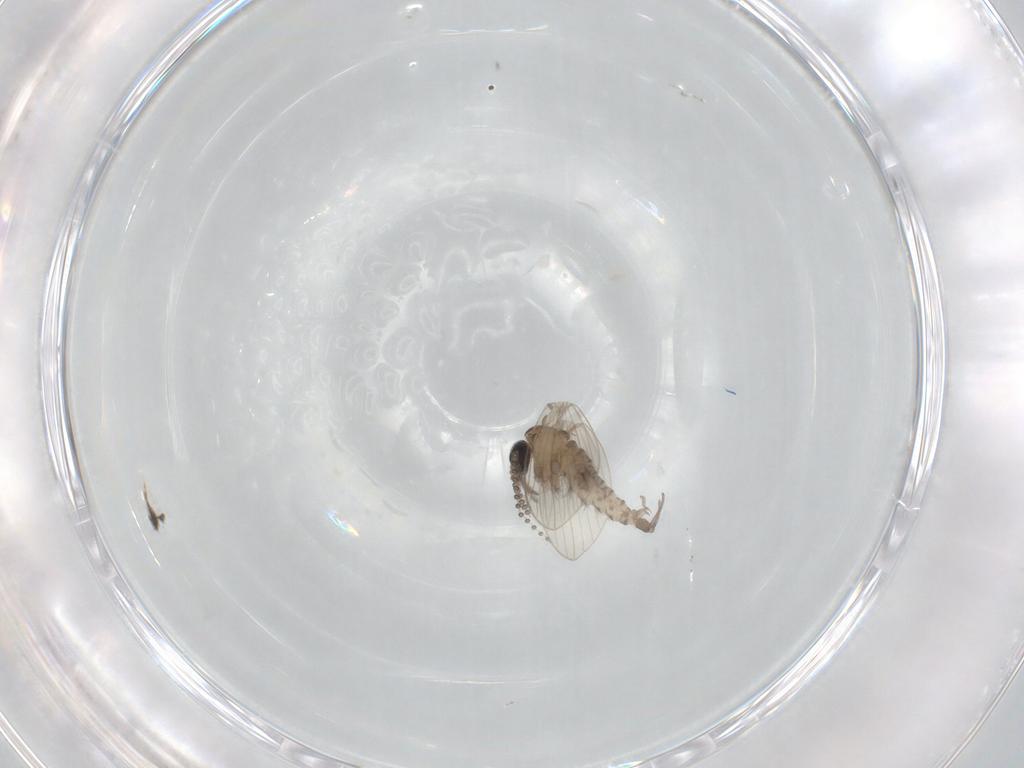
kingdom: Animalia
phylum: Arthropoda
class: Insecta
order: Diptera
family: Psychodidae
